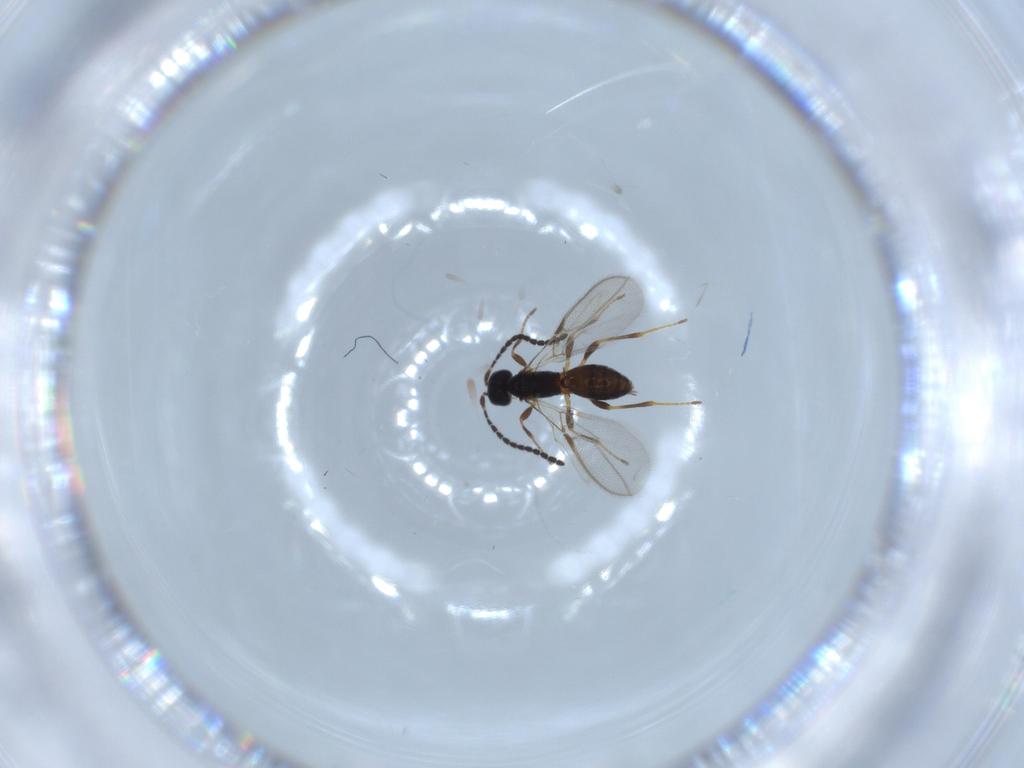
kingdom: Animalia
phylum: Arthropoda
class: Insecta
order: Hymenoptera
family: Braconidae
